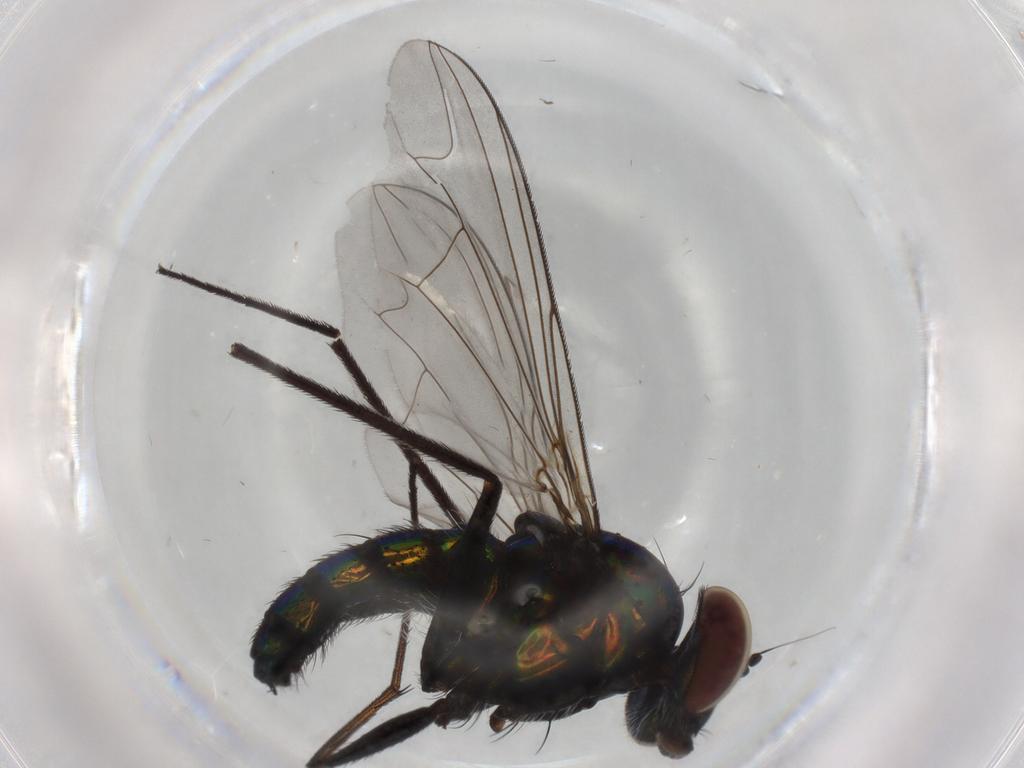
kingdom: Animalia
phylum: Arthropoda
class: Insecta
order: Diptera
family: Dolichopodidae
